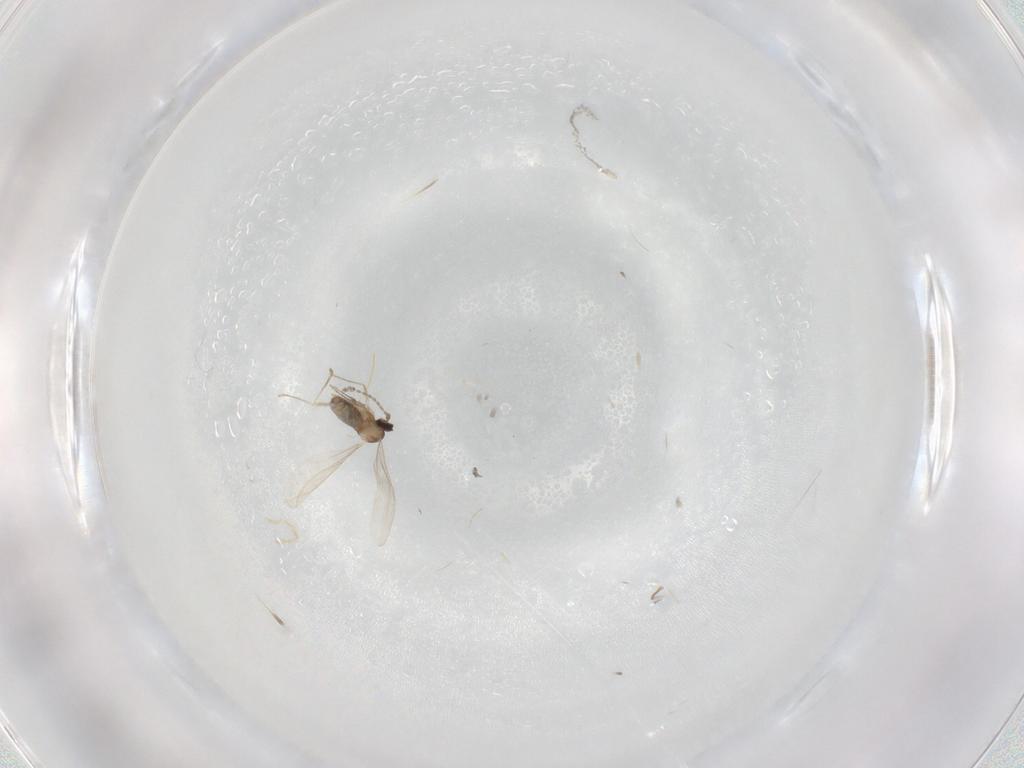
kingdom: Animalia
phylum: Arthropoda
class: Insecta
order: Diptera
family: Cecidomyiidae
